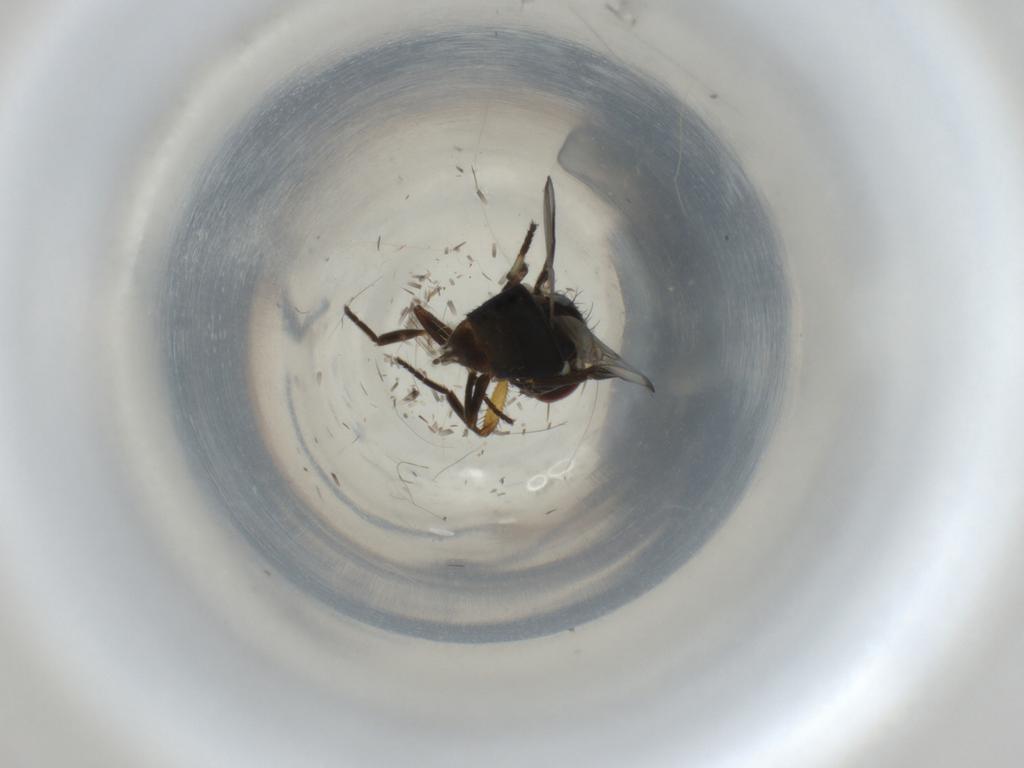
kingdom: Animalia
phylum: Arthropoda
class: Insecta
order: Diptera
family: Ulidiidae
